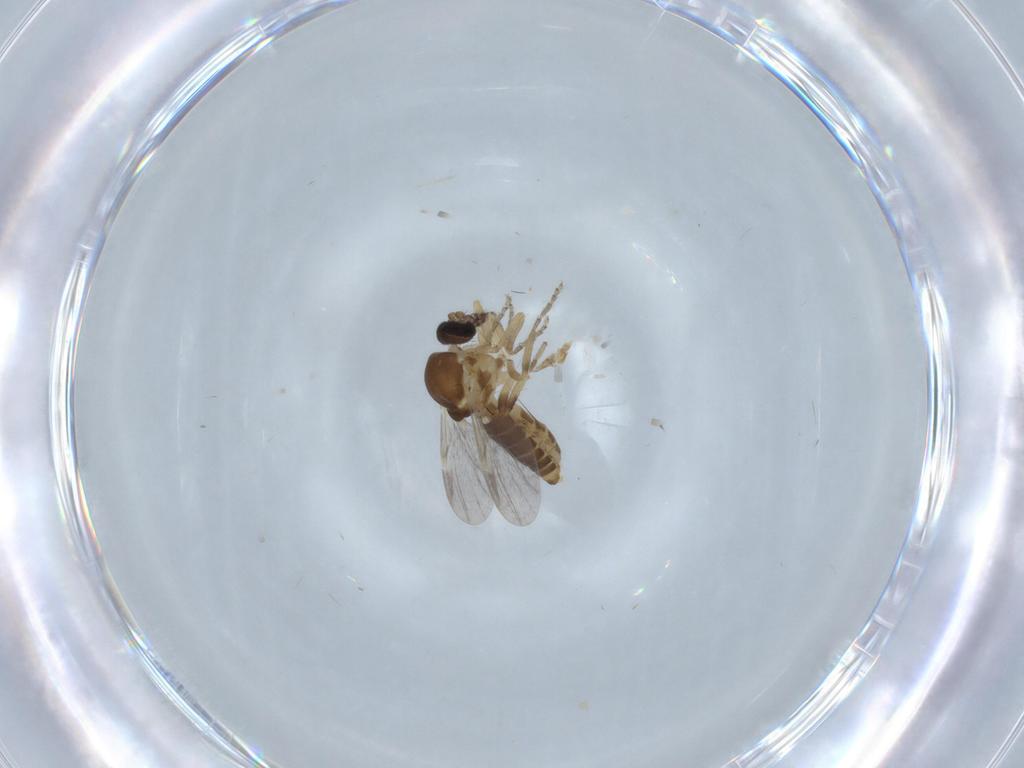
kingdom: Animalia
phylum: Arthropoda
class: Insecta
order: Diptera
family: Ceratopogonidae
